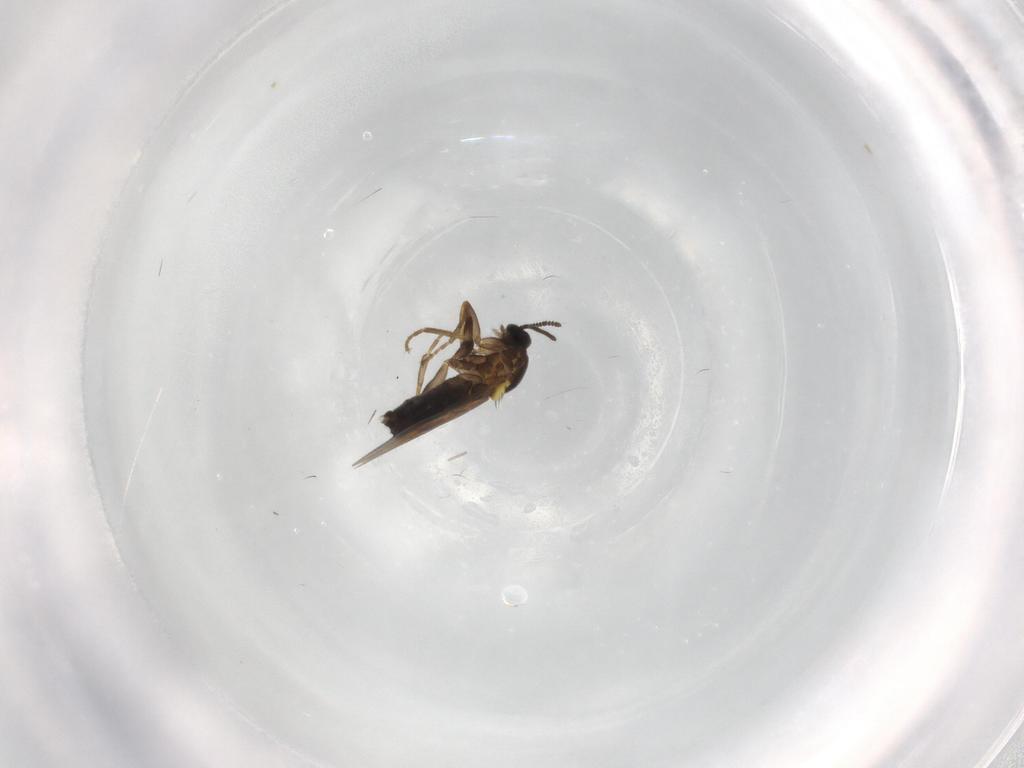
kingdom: Animalia
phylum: Arthropoda
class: Insecta
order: Diptera
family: Scatopsidae
